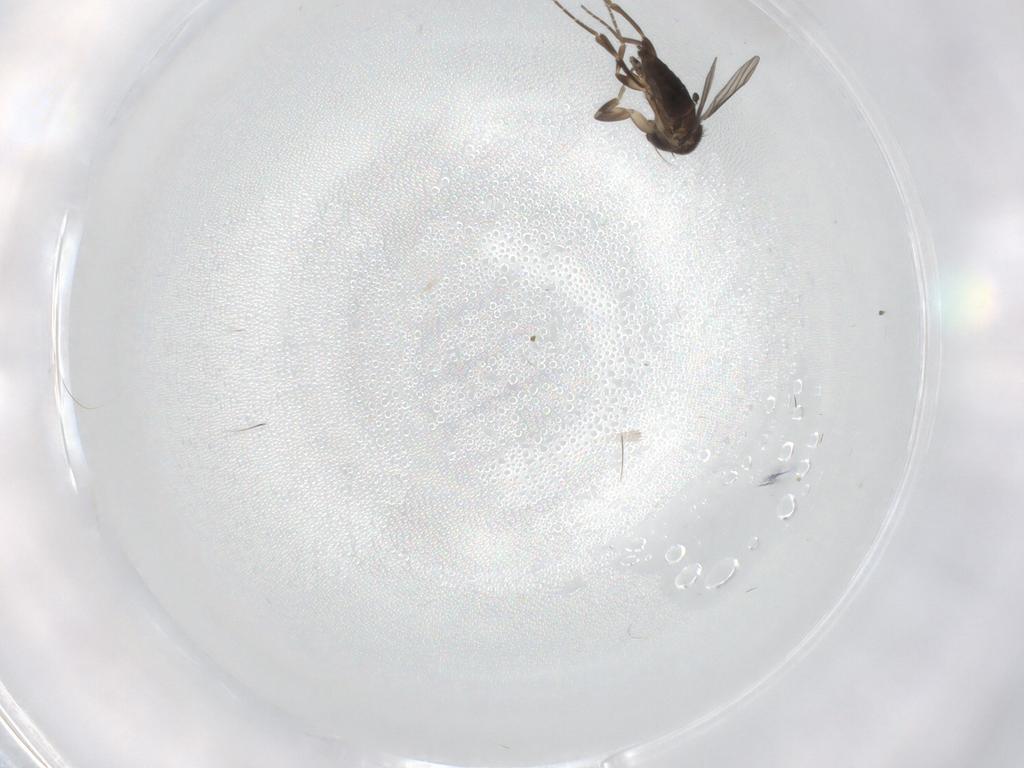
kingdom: Animalia
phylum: Arthropoda
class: Insecta
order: Diptera
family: Phoridae
